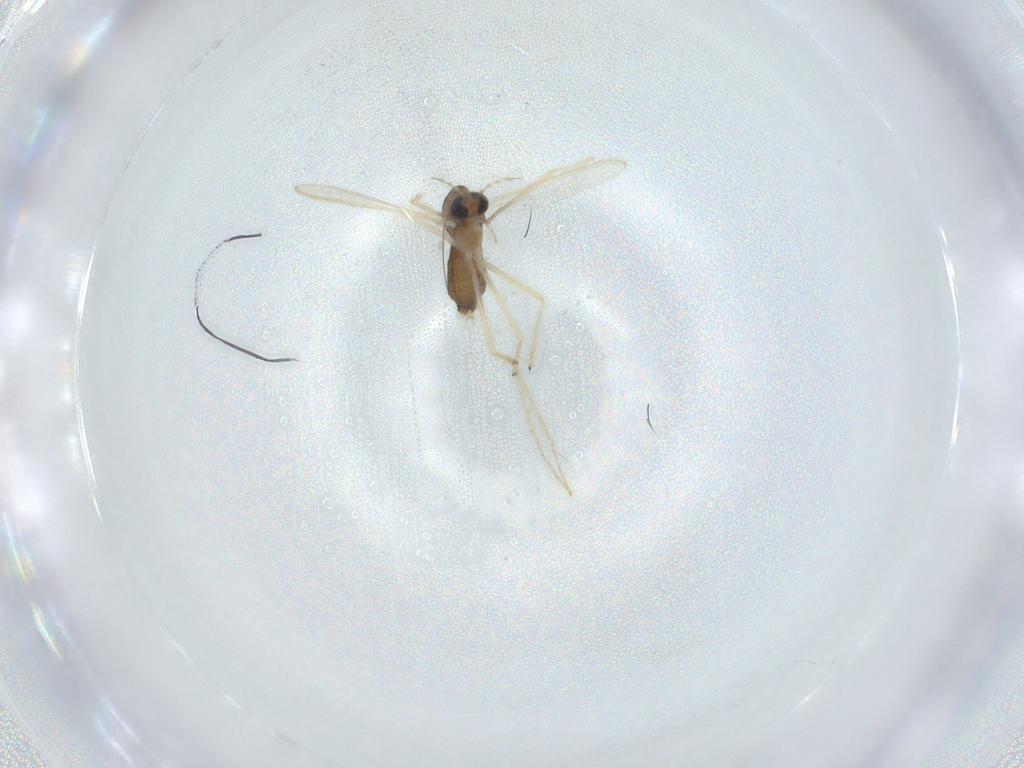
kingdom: Animalia
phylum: Arthropoda
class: Insecta
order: Diptera
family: Chironomidae
